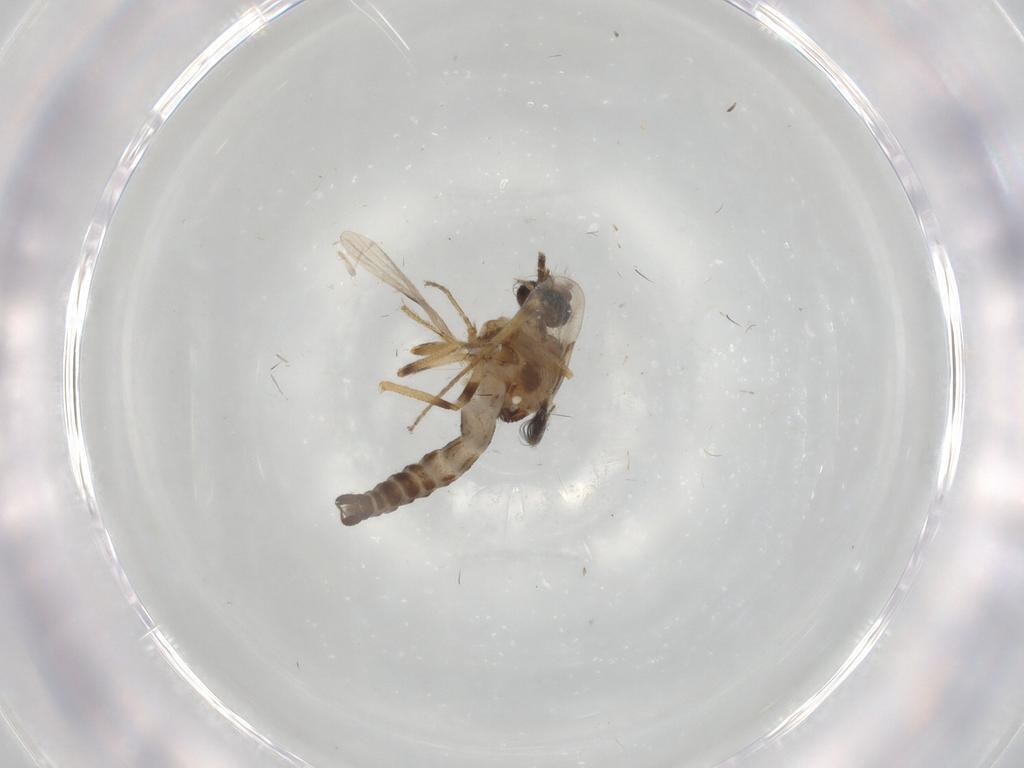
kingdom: Animalia
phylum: Arthropoda
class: Insecta
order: Diptera
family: Ceratopogonidae
